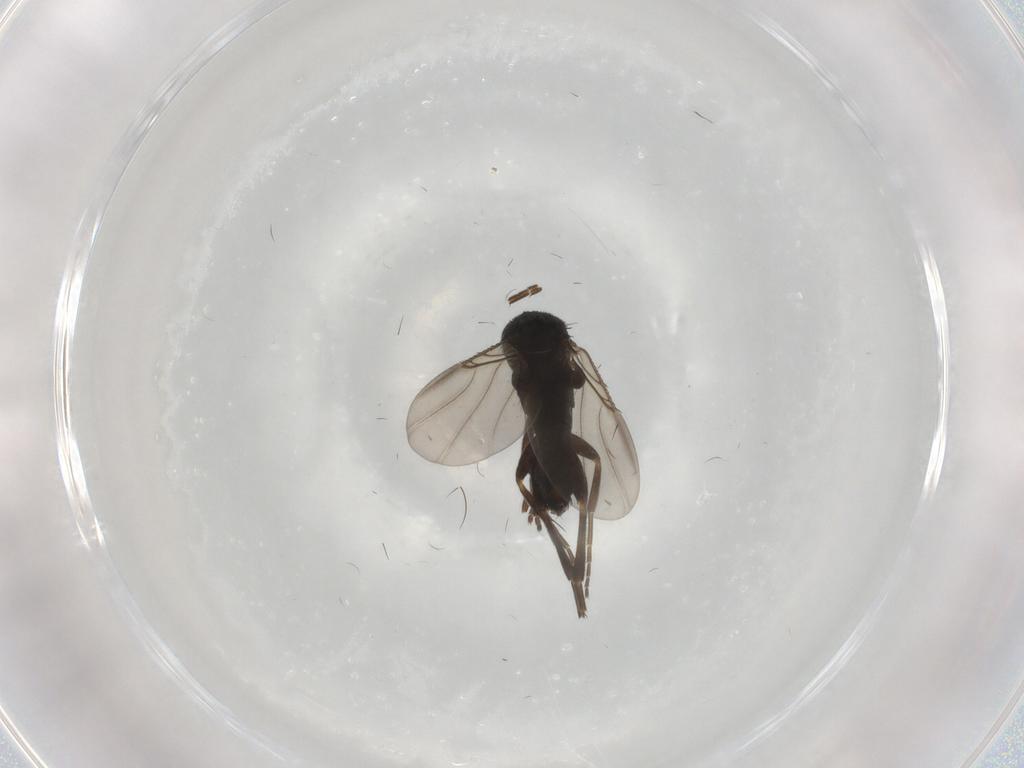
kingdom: Animalia
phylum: Arthropoda
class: Insecta
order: Diptera
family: Phoridae
